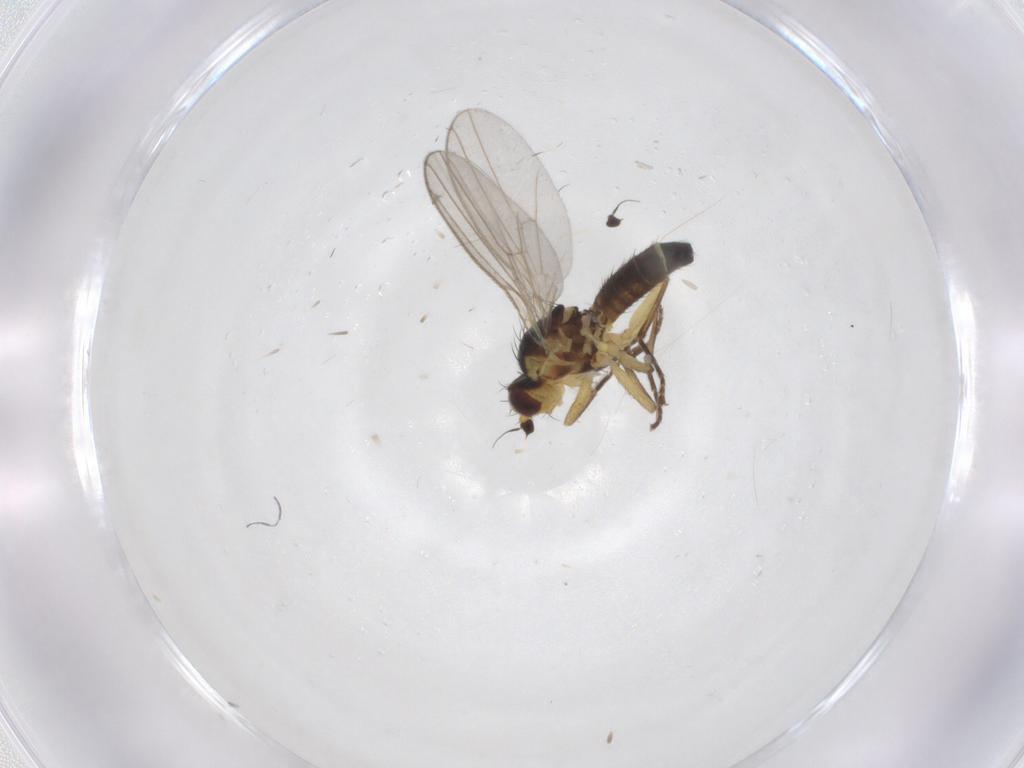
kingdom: Animalia
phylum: Arthropoda
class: Insecta
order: Diptera
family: Agromyzidae
